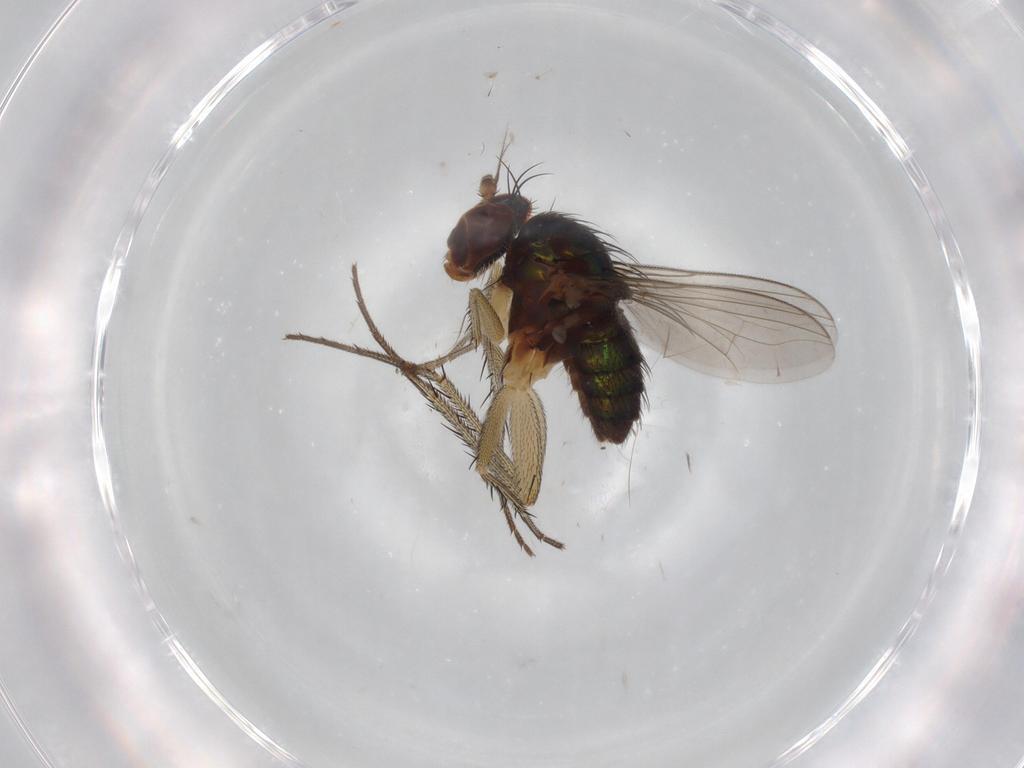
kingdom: Animalia
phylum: Arthropoda
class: Insecta
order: Diptera
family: Dolichopodidae
